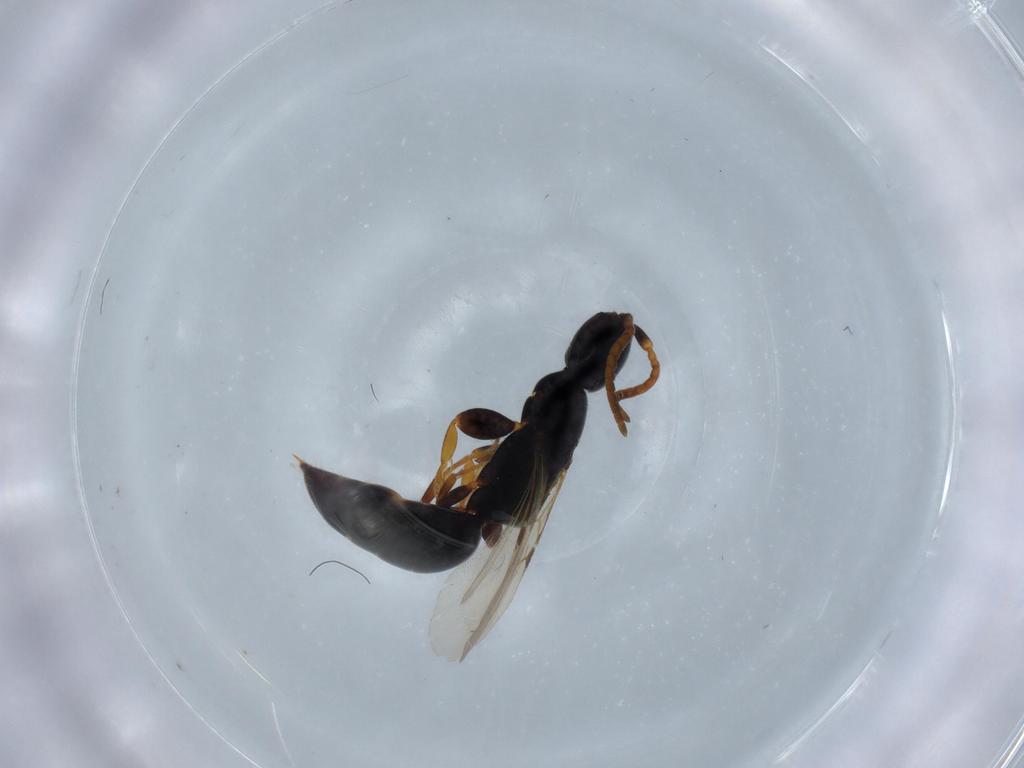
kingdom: Animalia
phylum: Arthropoda
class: Insecta
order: Hymenoptera
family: Bethylidae
